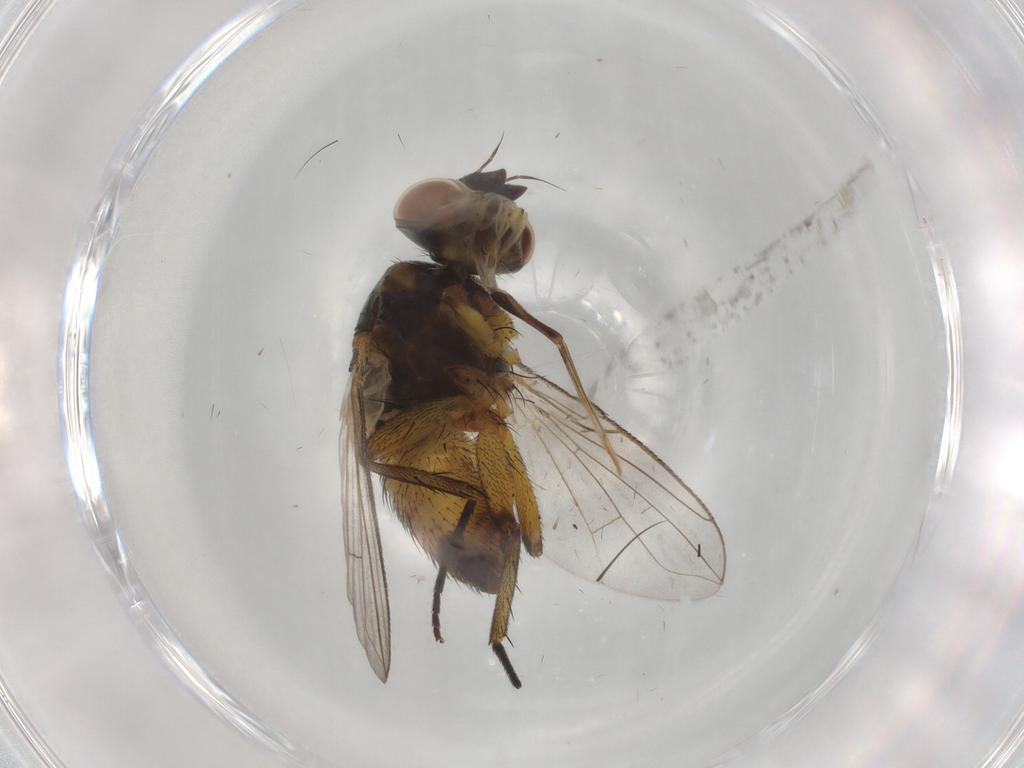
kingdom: Animalia
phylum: Arthropoda
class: Insecta
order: Diptera
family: Tachinidae
